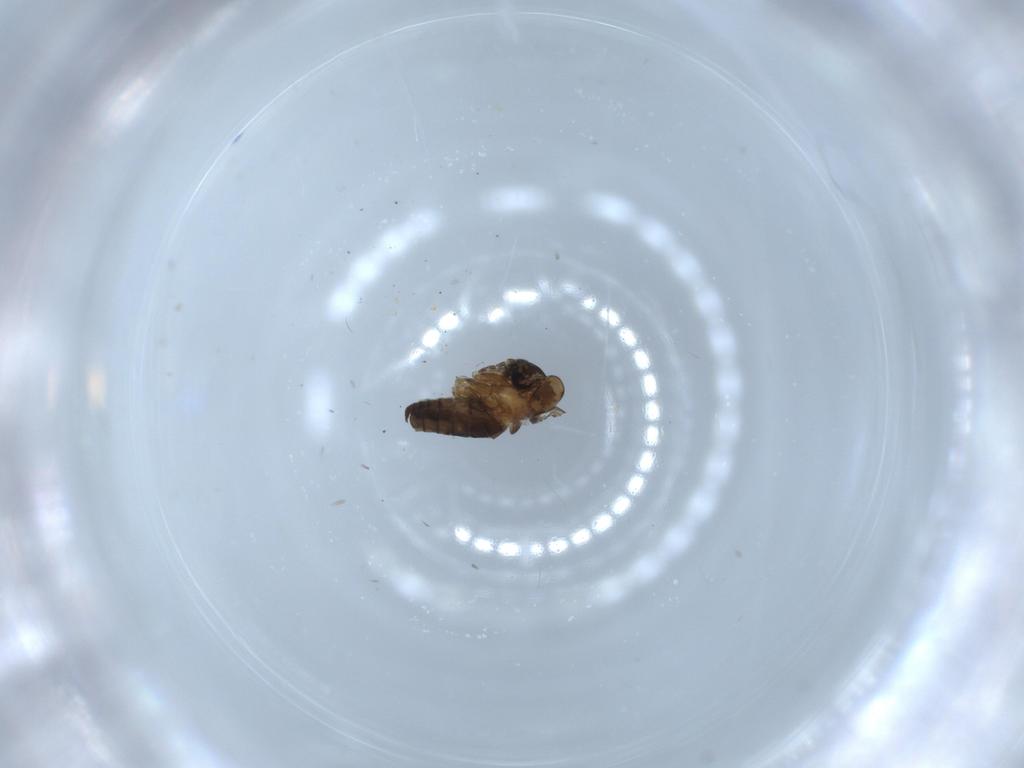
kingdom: Animalia
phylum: Arthropoda
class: Insecta
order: Diptera
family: Psychodidae
